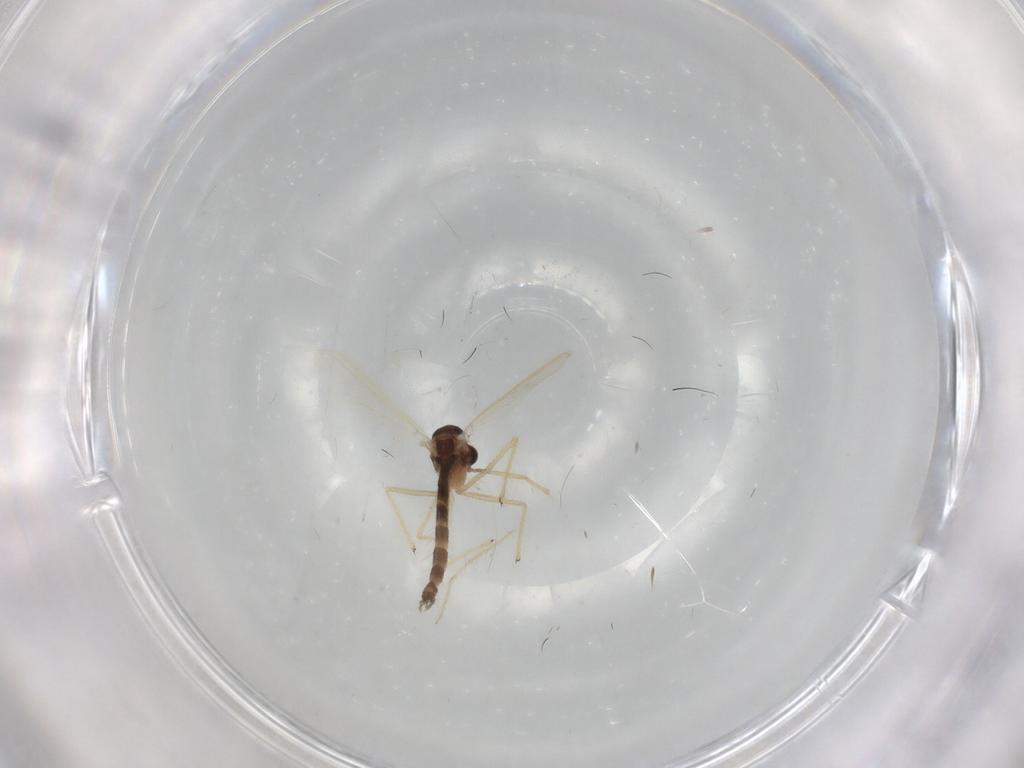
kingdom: Animalia
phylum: Arthropoda
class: Insecta
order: Diptera
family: Chironomidae
